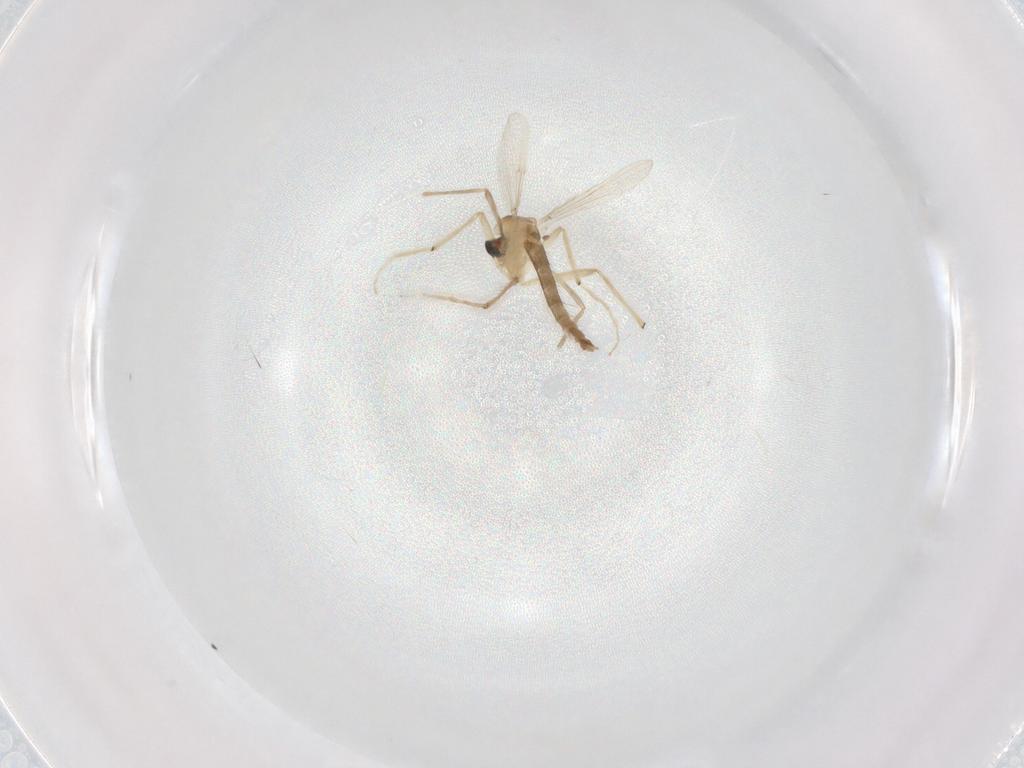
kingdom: Animalia
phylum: Arthropoda
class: Insecta
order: Diptera
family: Chironomidae
